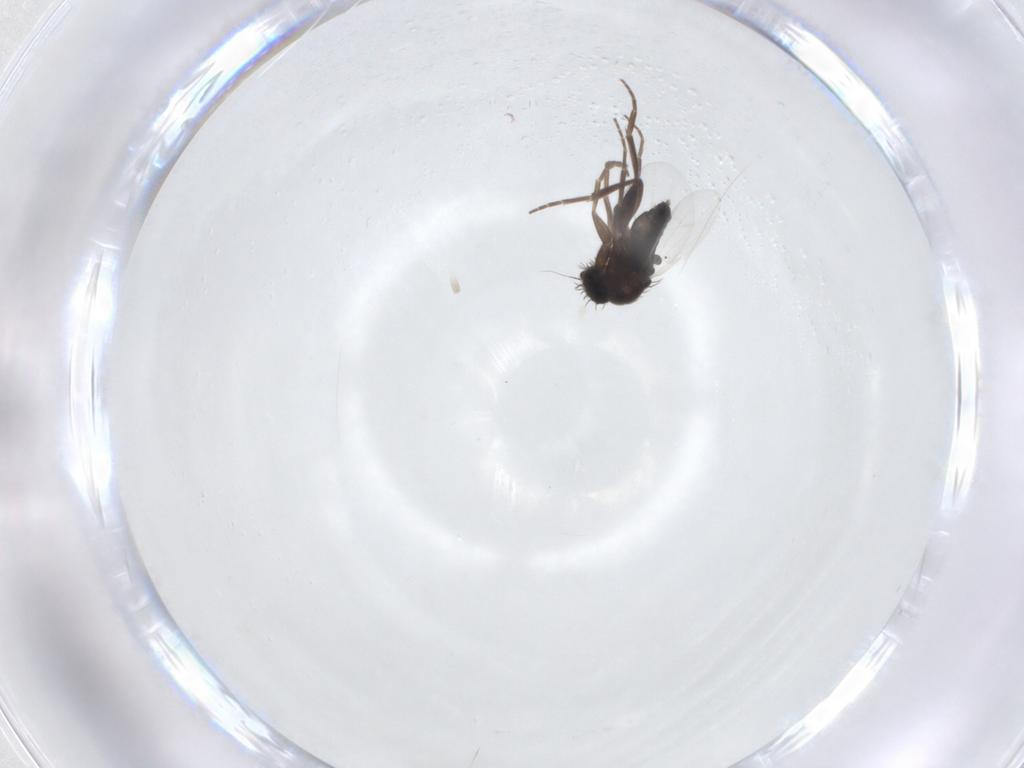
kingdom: Animalia
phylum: Arthropoda
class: Insecta
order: Diptera
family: Phoridae
